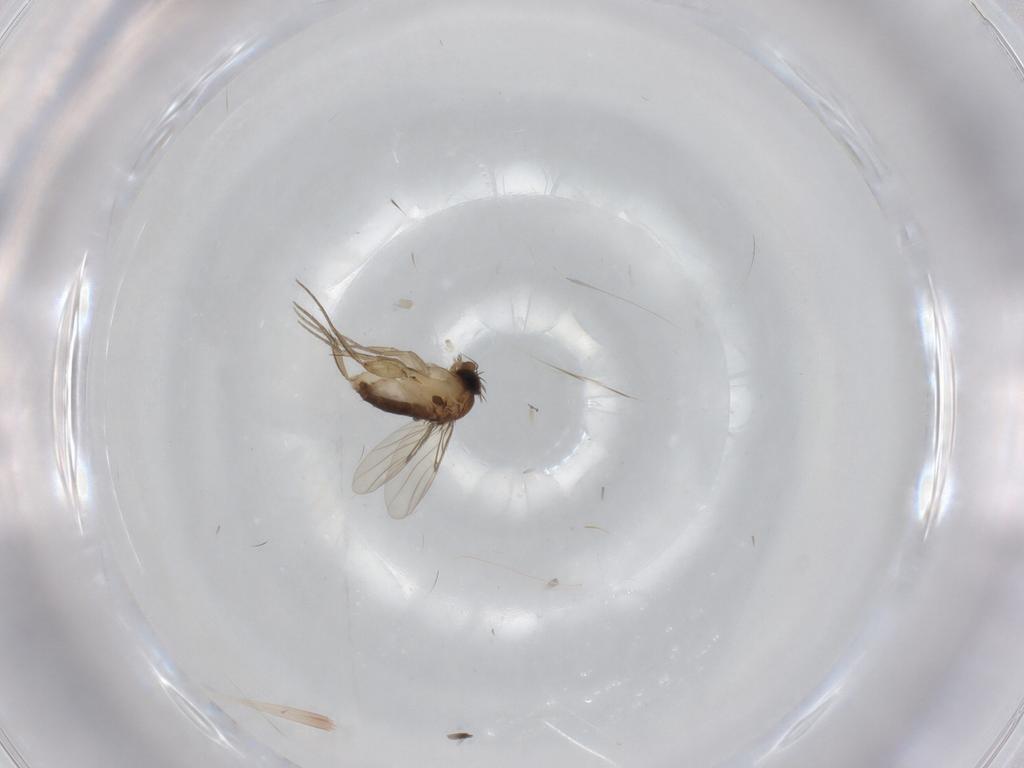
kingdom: Animalia
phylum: Arthropoda
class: Insecta
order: Diptera
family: Phoridae
